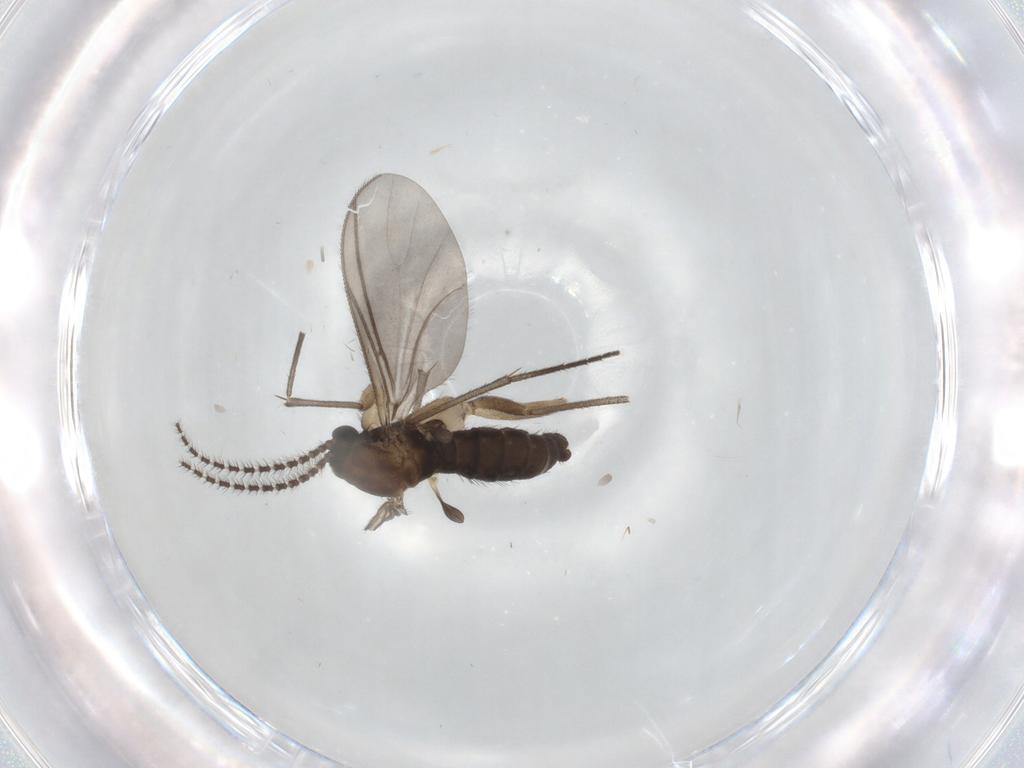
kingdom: Animalia
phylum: Arthropoda
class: Insecta
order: Diptera
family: Sciaridae
